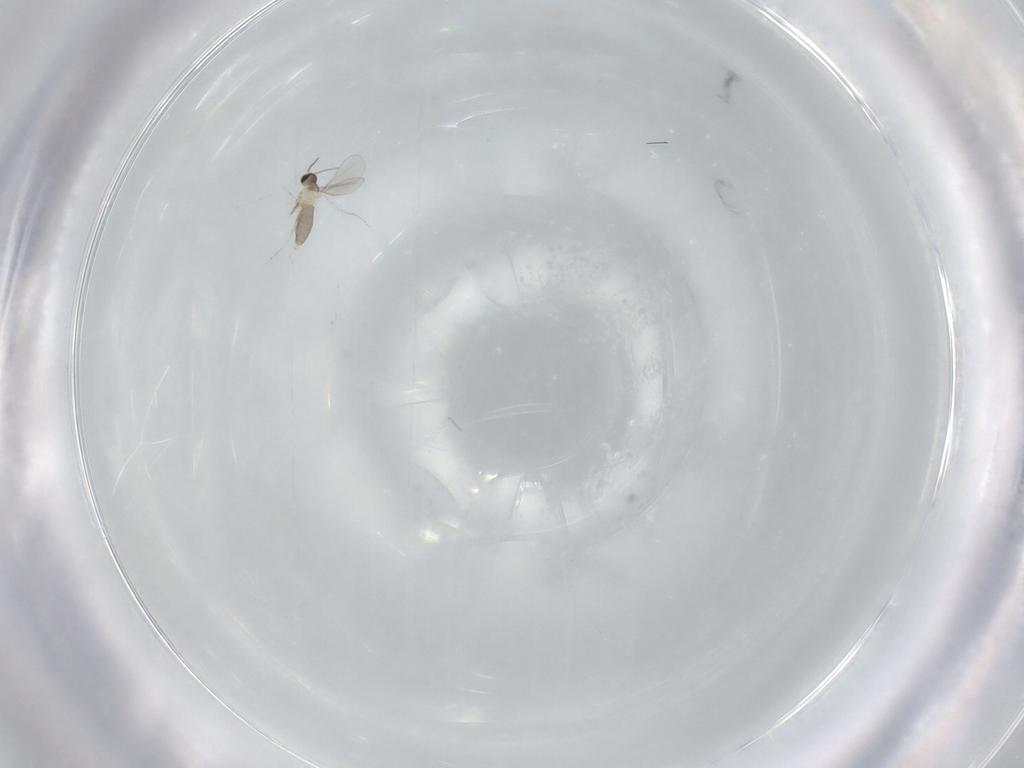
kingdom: Animalia
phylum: Arthropoda
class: Insecta
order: Diptera
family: Cecidomyiidae
